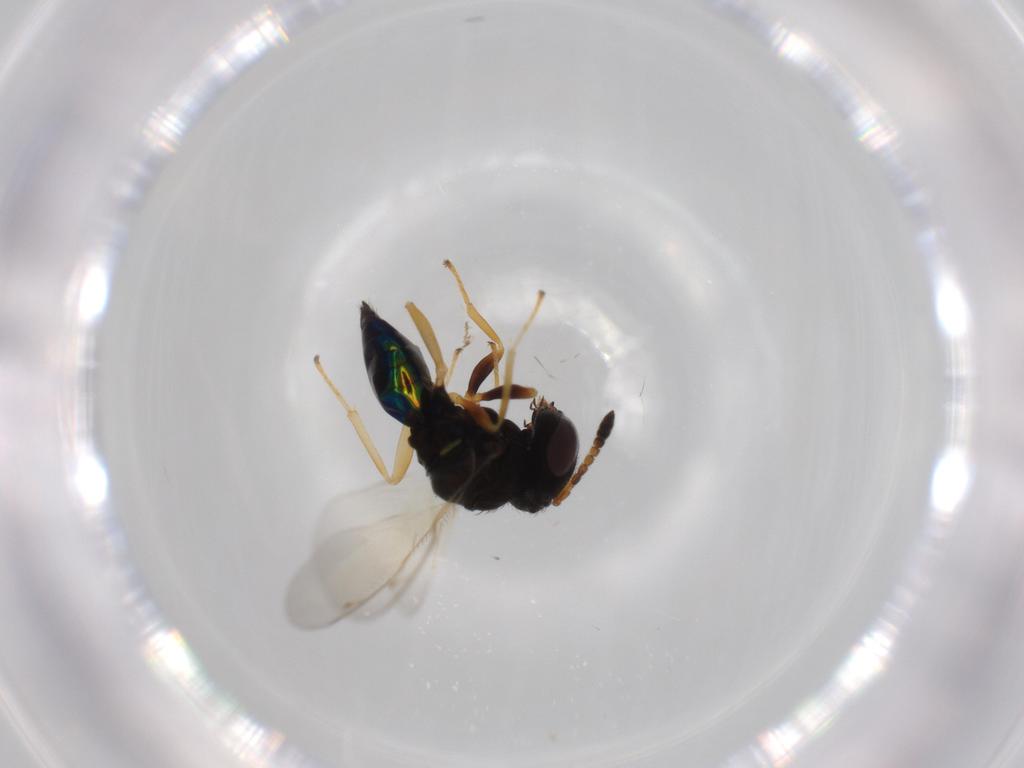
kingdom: Animalia
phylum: Arthropoda
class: Insecta
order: Hymenoptera
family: Pteromalidae
